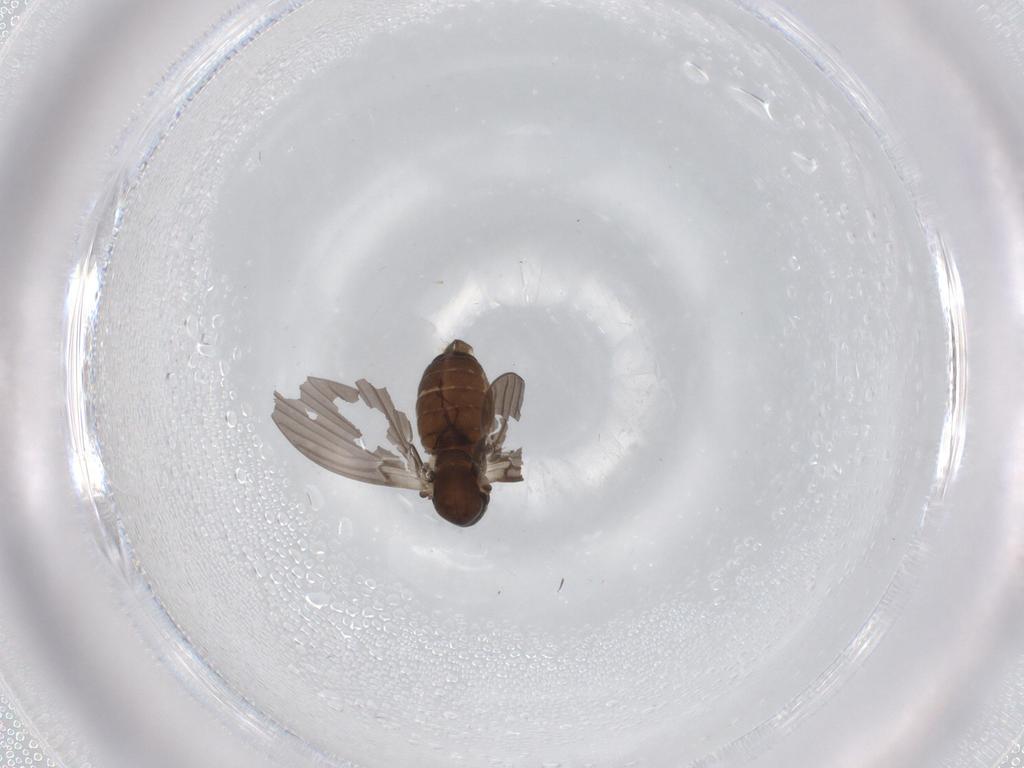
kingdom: Animalia
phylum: Arthropoda
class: Insecta
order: Diptera
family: Psychodidae
